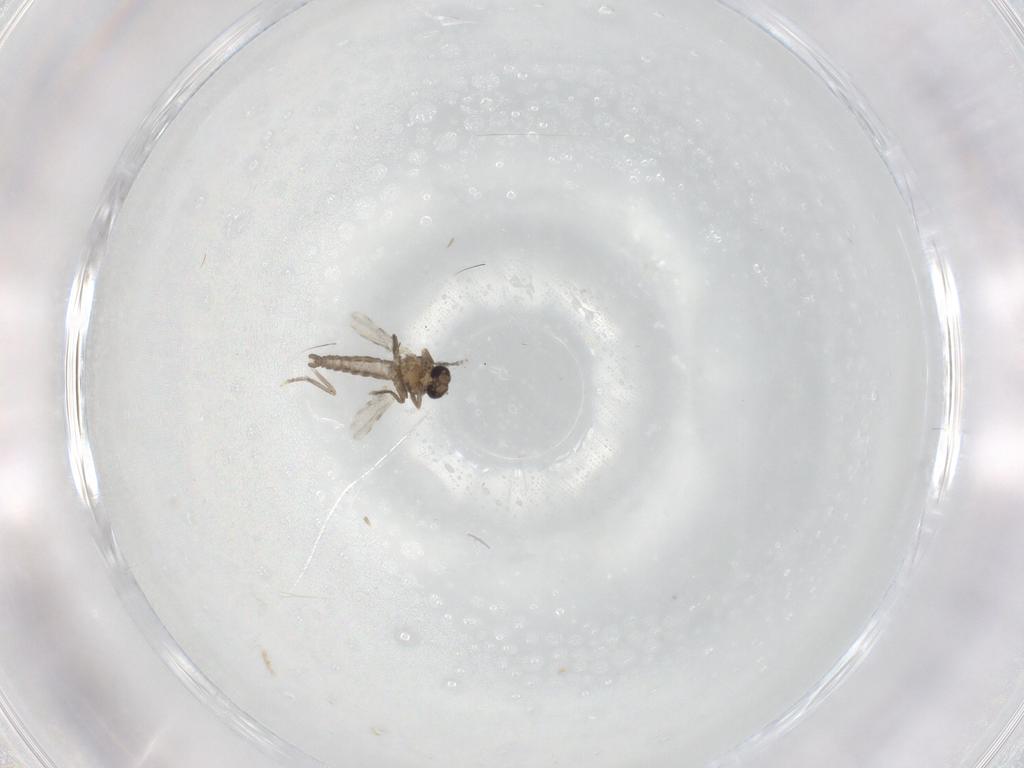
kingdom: Animalia
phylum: Arthropoda
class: Insecta
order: Diptera
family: Ceratopogonidae
